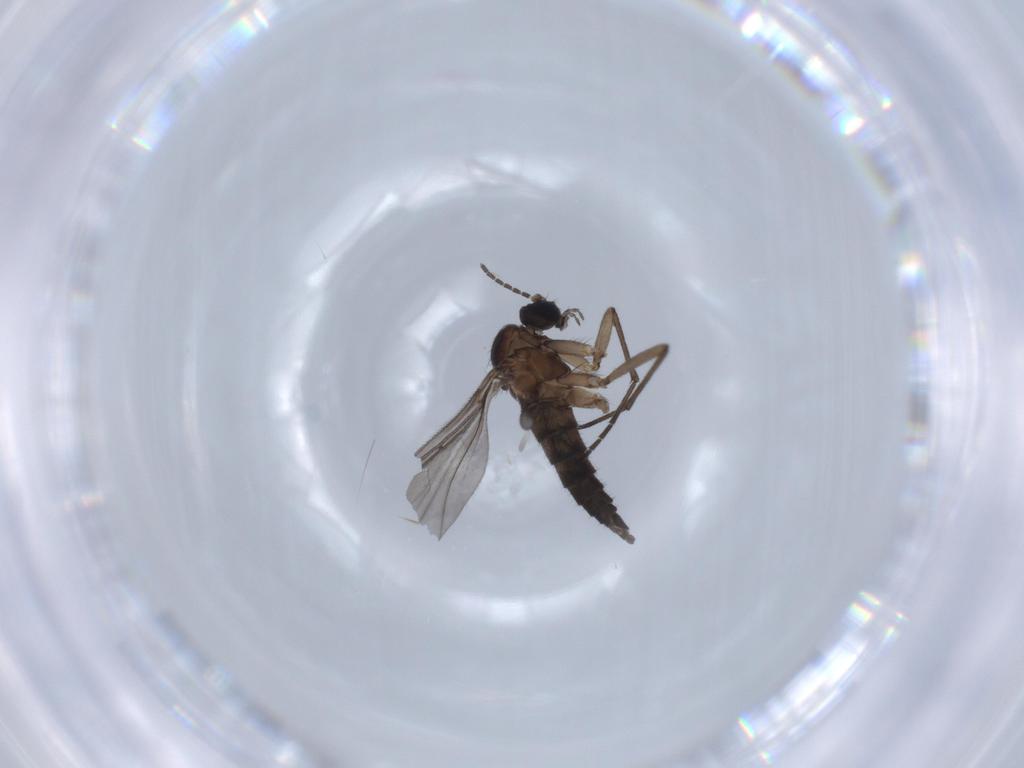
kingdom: Animalia
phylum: Arthropoda
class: Insecta
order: Diptera
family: Sciaridae
